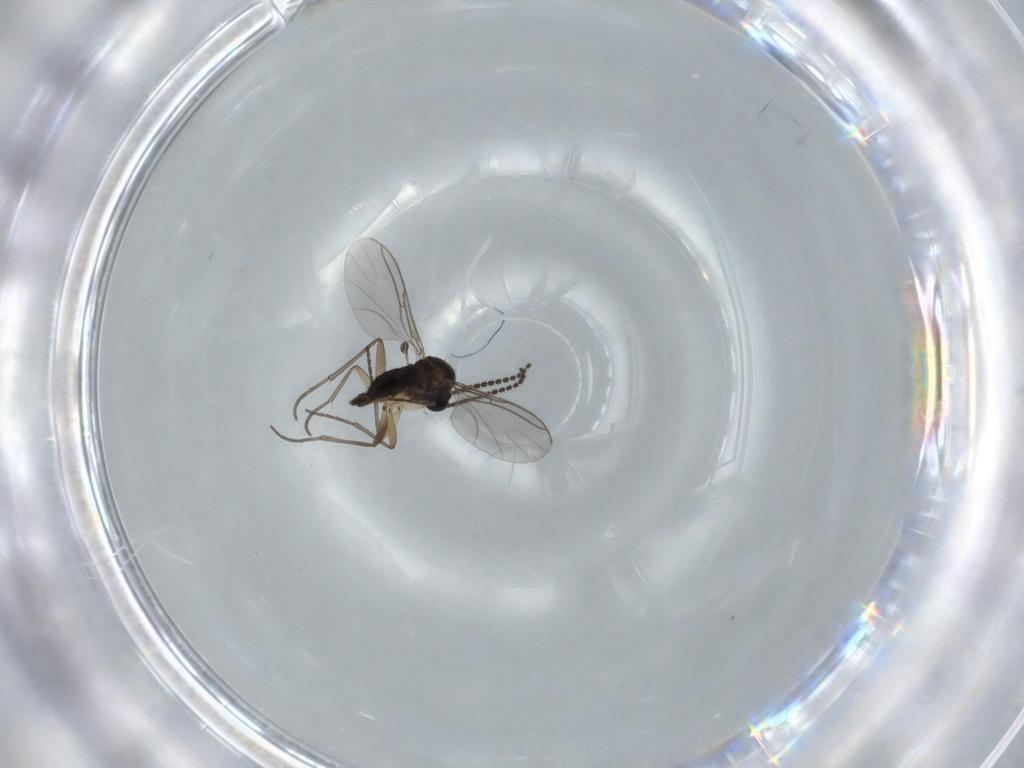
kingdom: Animalia
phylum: Arthropoda
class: Insecta
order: Diptera
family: Sciaridae
